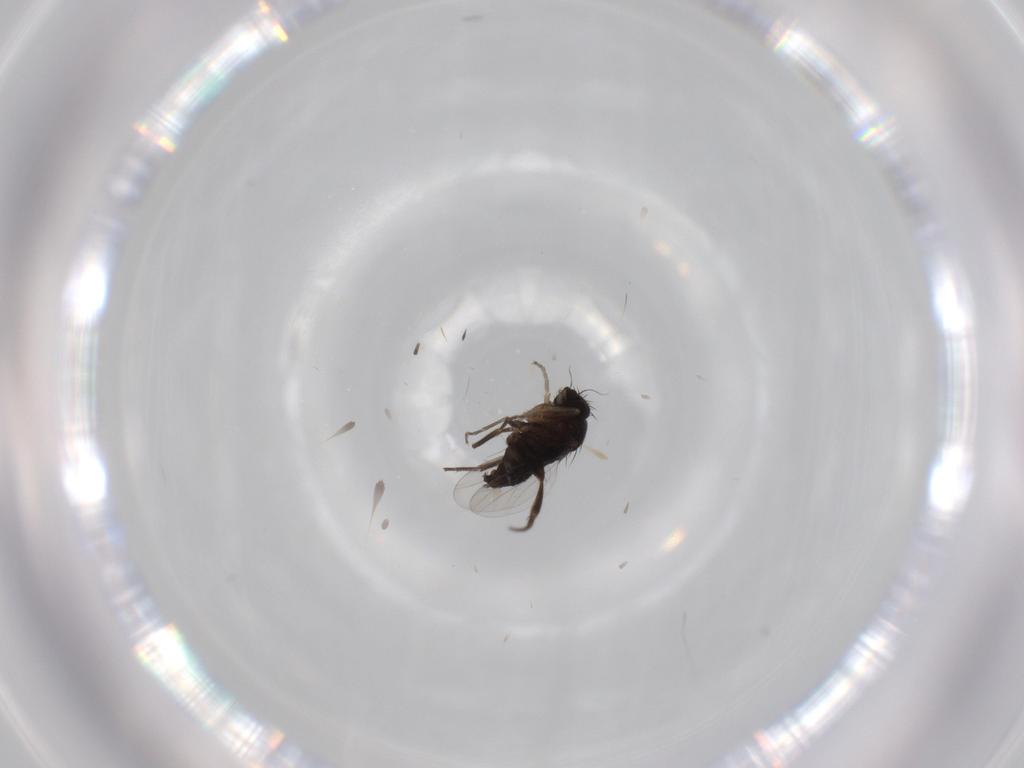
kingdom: Animalia
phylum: Arthropoda
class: Insecta
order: Diptera
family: Phoridae
